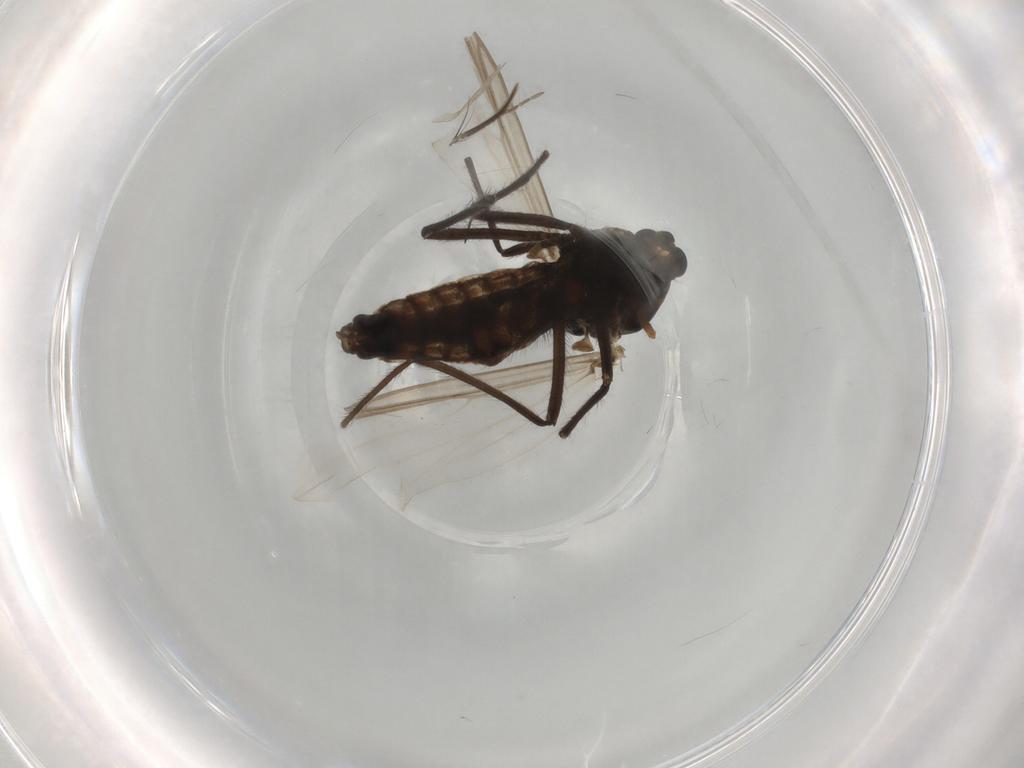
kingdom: Animalia
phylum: Arthropoda
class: Insecta
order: Diptera
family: Chironomidae
